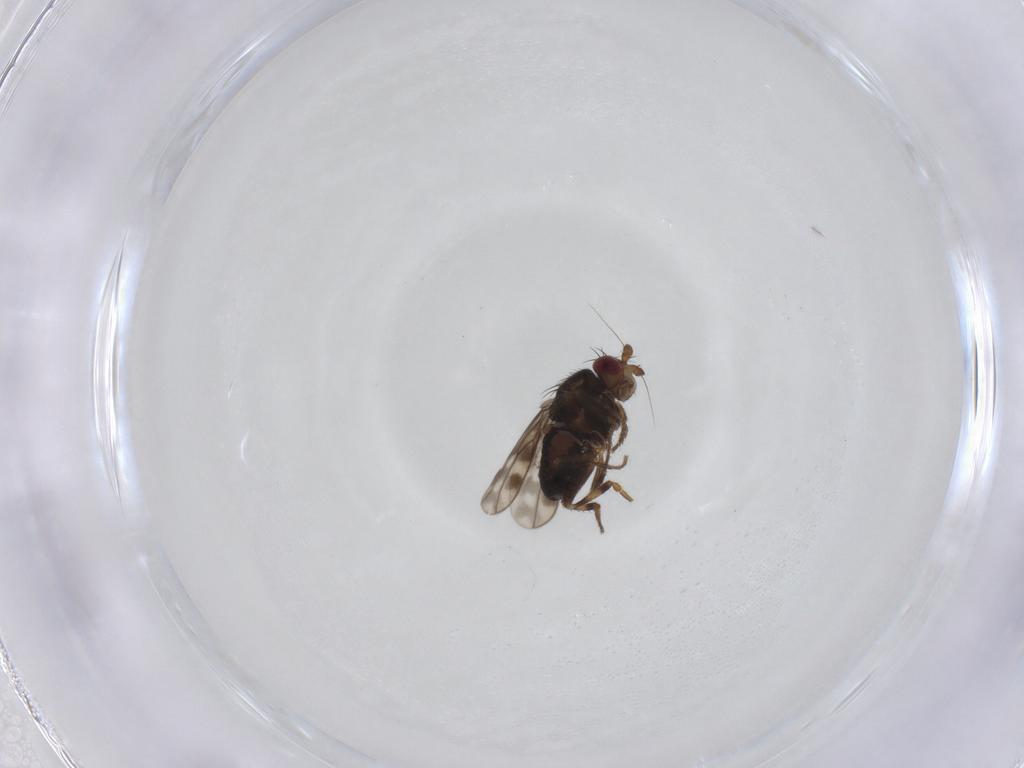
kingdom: Animalia
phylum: Arthropoda
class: Insecta
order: Diptera
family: Sphaeroceridae
